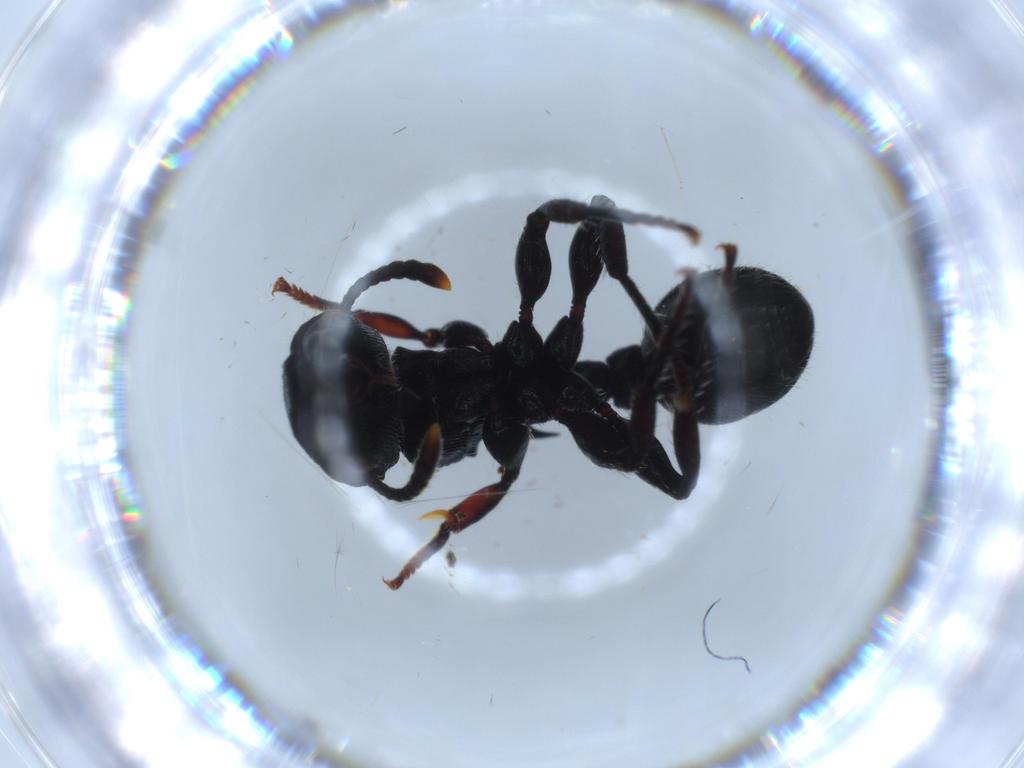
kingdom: Animalia
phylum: Arthropoda
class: Insecta
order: Hymenoptera
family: Formicidae
